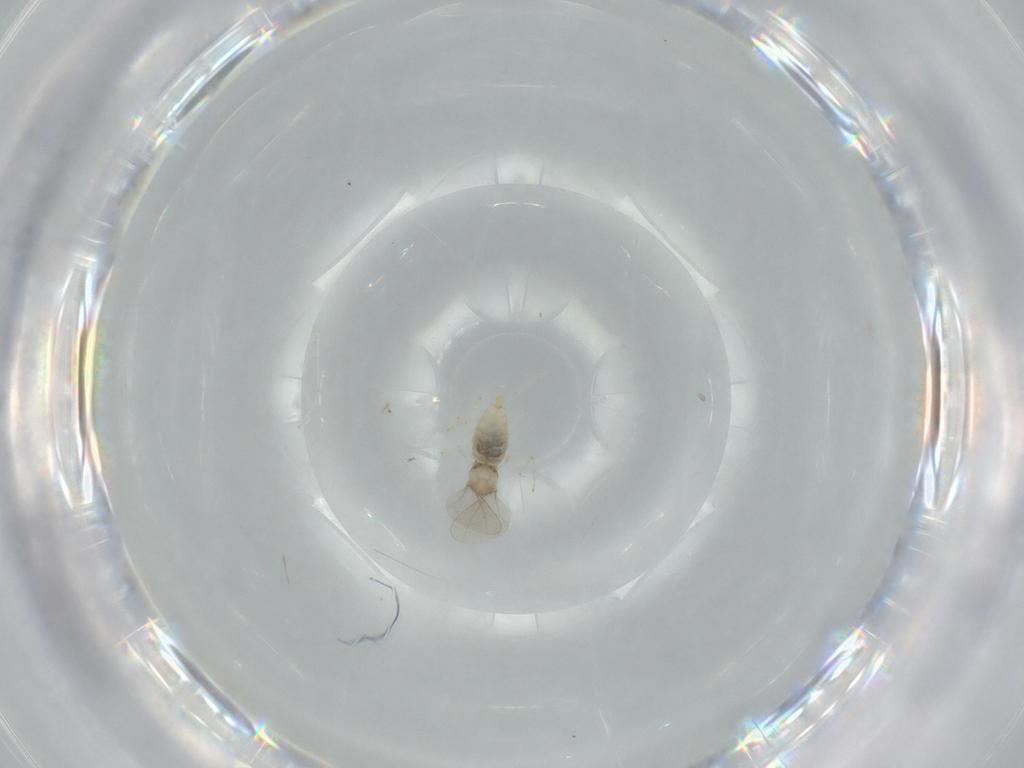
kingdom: Animalia
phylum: Arthropoda
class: Insecta
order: Diptera
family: Cecidomyiidae
